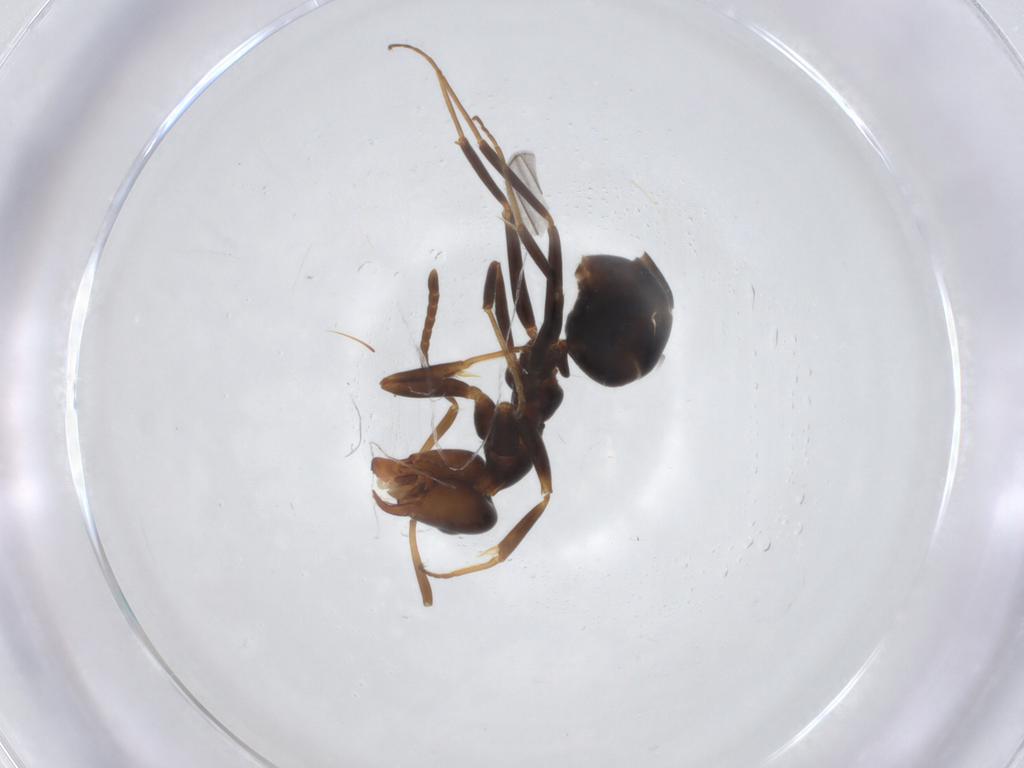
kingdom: Animalia
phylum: Arthropoda
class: Insecta
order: Hymenoptera
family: Formicidae
